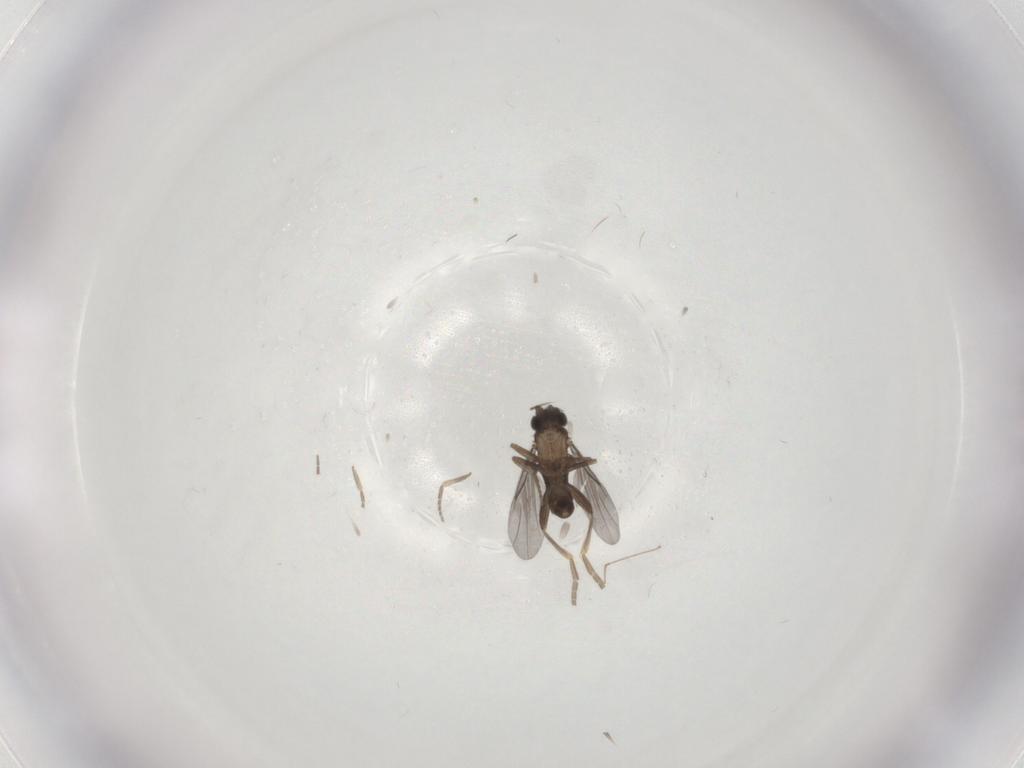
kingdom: Animalia
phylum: Arthropoda
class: Insecta
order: Diptera
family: Chironomidae
